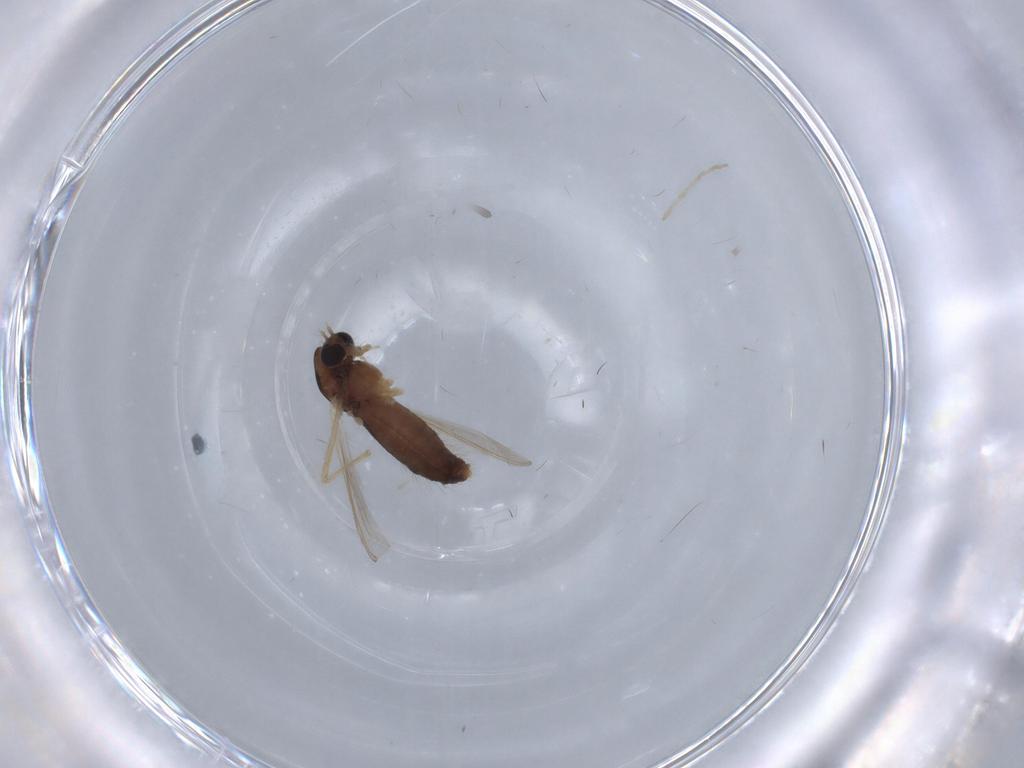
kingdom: Animalia
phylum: Arthropoda
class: Insecta
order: Diptera
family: Chironomidae
